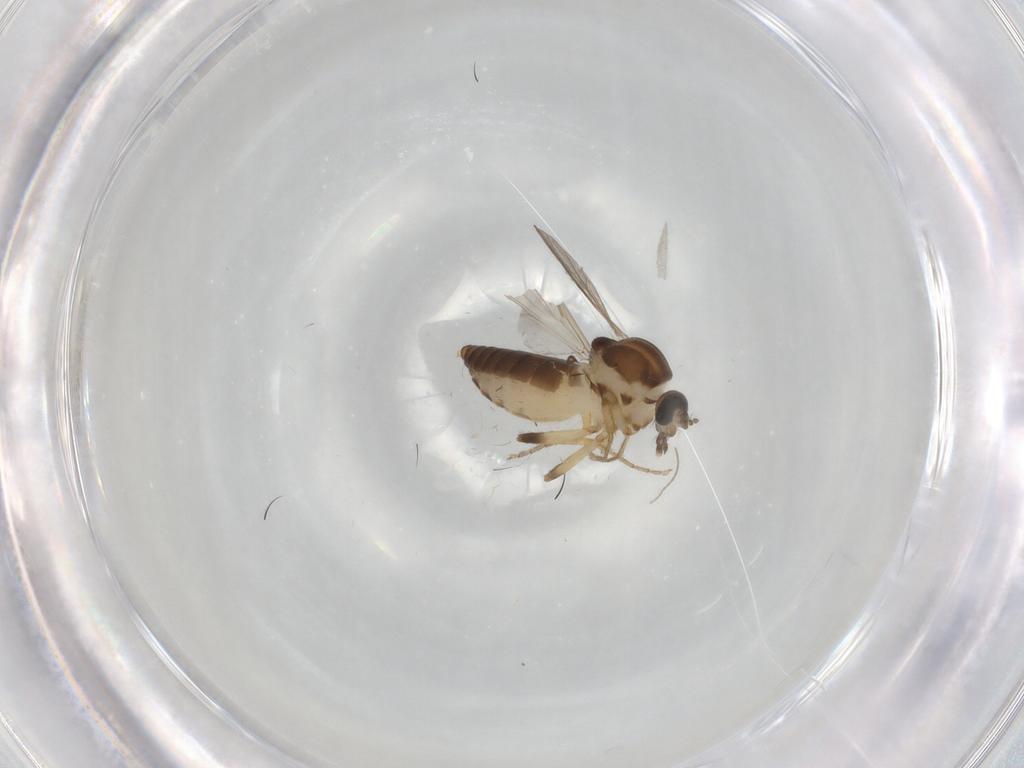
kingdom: Animalia
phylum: Arthropoda
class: Insecta
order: Diptera
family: Ceratopogonidae
